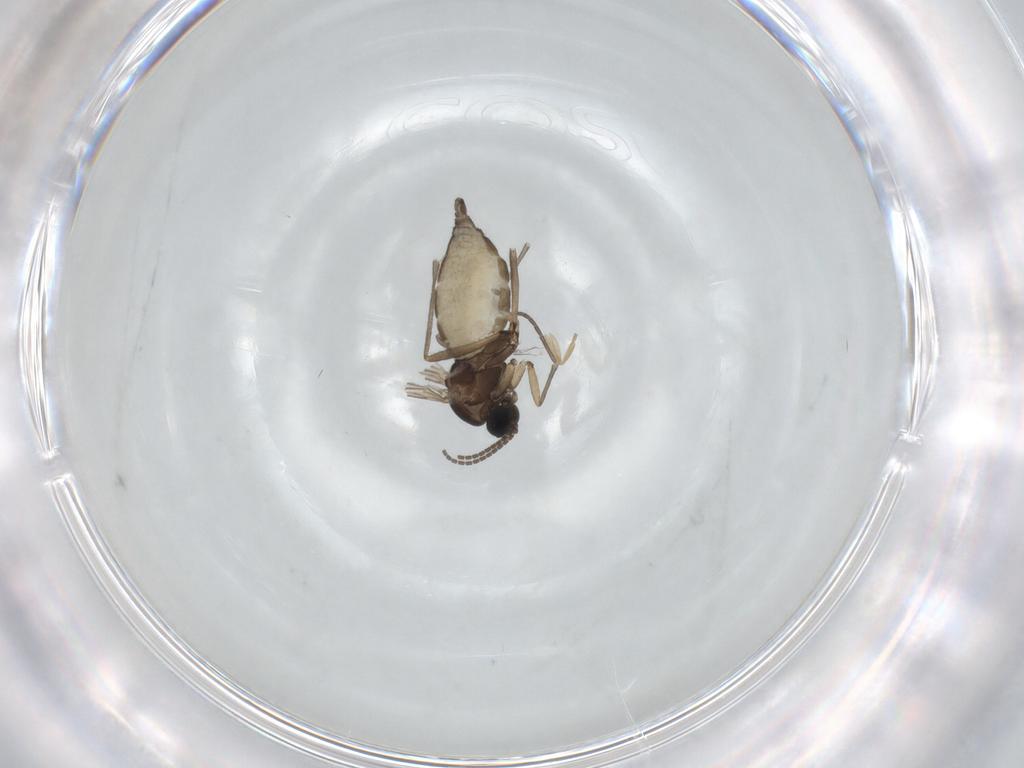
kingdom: Animalia
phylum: Arthropoda
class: Insecta
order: Diptera
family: Sciaridae
